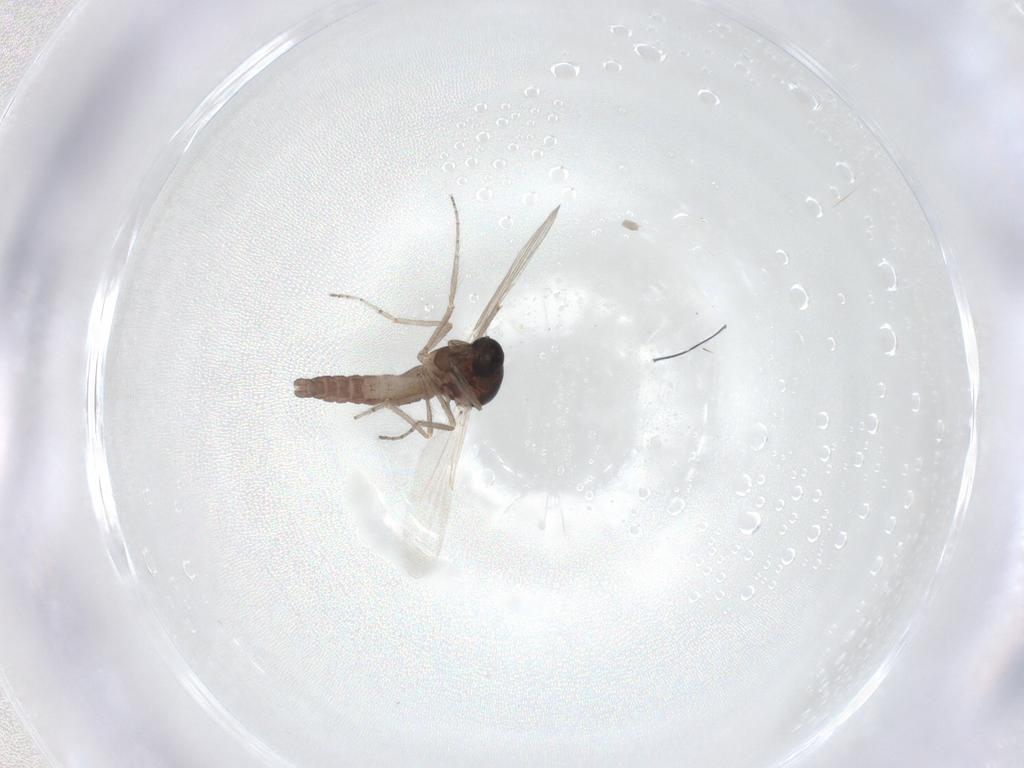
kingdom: Animalia
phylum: Arthropoda
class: Insecta
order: Diptera
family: Ceratopogonidae
